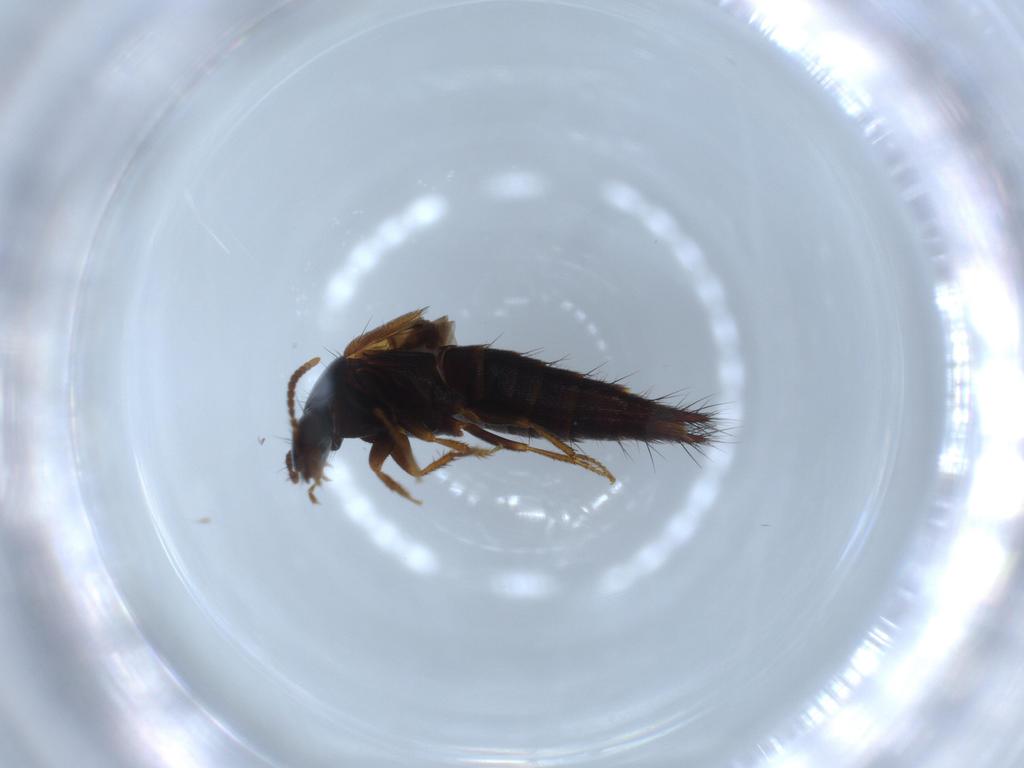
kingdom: Animalia
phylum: Arthropoda
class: Insecta
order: Coleoptera
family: Staphylinidae
